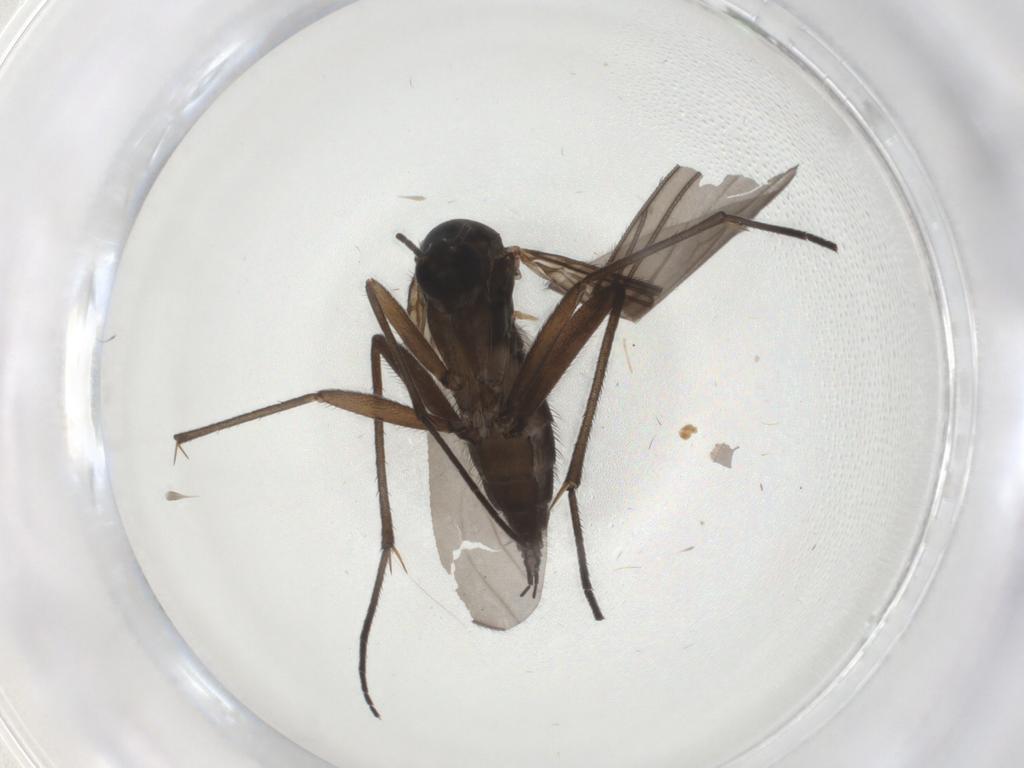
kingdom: Animalia
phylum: Arthropoda
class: Insecta
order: Diptera
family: Sciaridae
